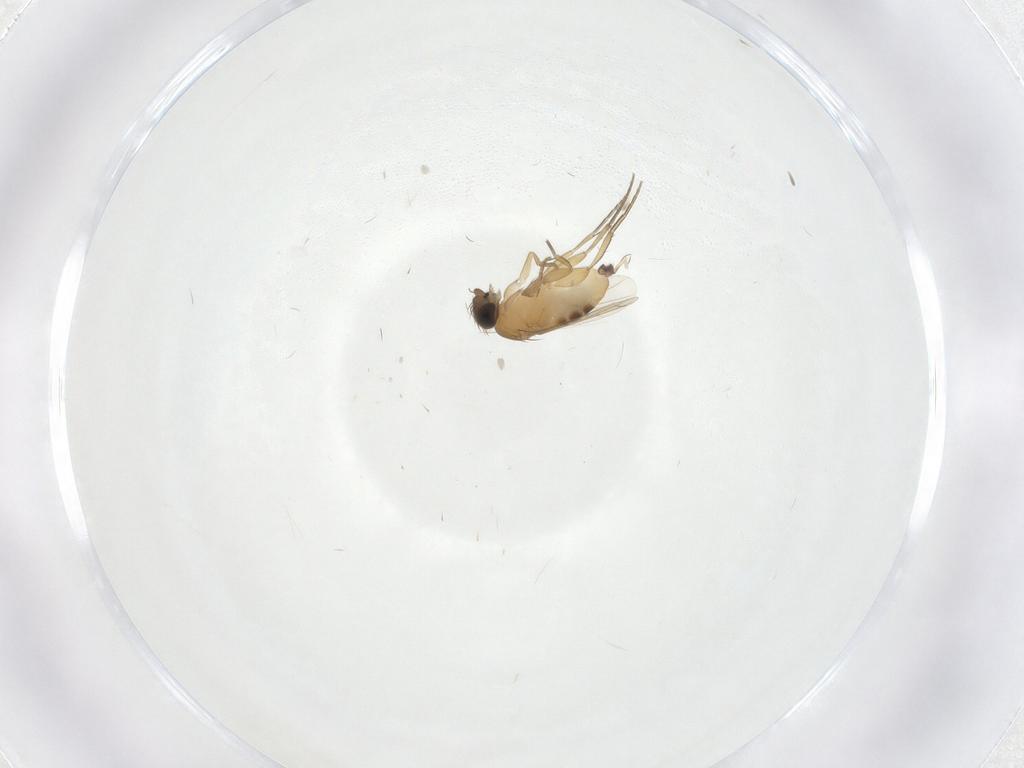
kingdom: Animalia
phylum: Arthropoda
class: Insecta
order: Diptera
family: Phoridae
